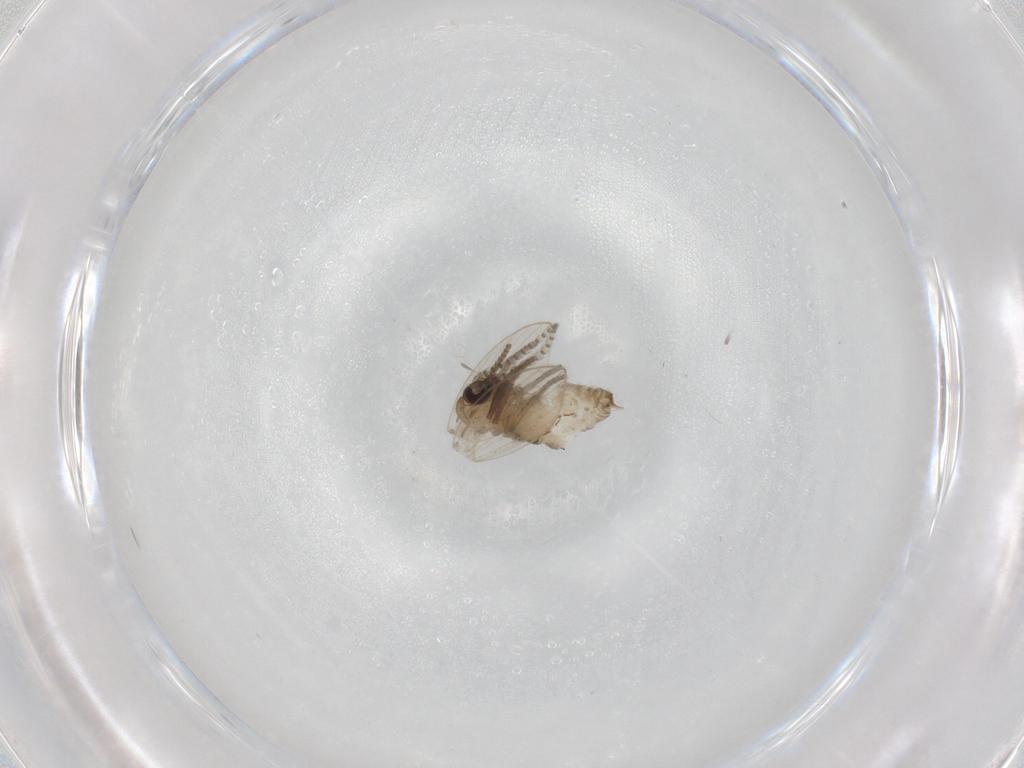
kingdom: Animalia
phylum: Arthropoda
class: Insecta
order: Diptera
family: Psychodidae
